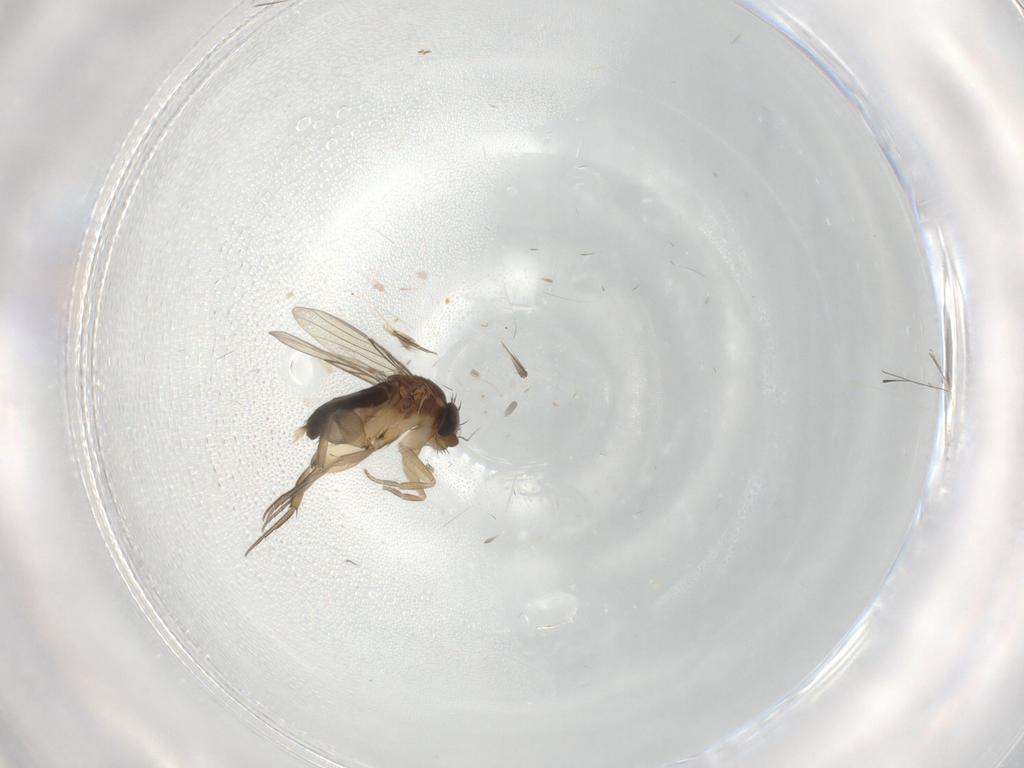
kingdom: Animalia
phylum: Arthropoda
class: Insecta
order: Diptera
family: Phoridae
